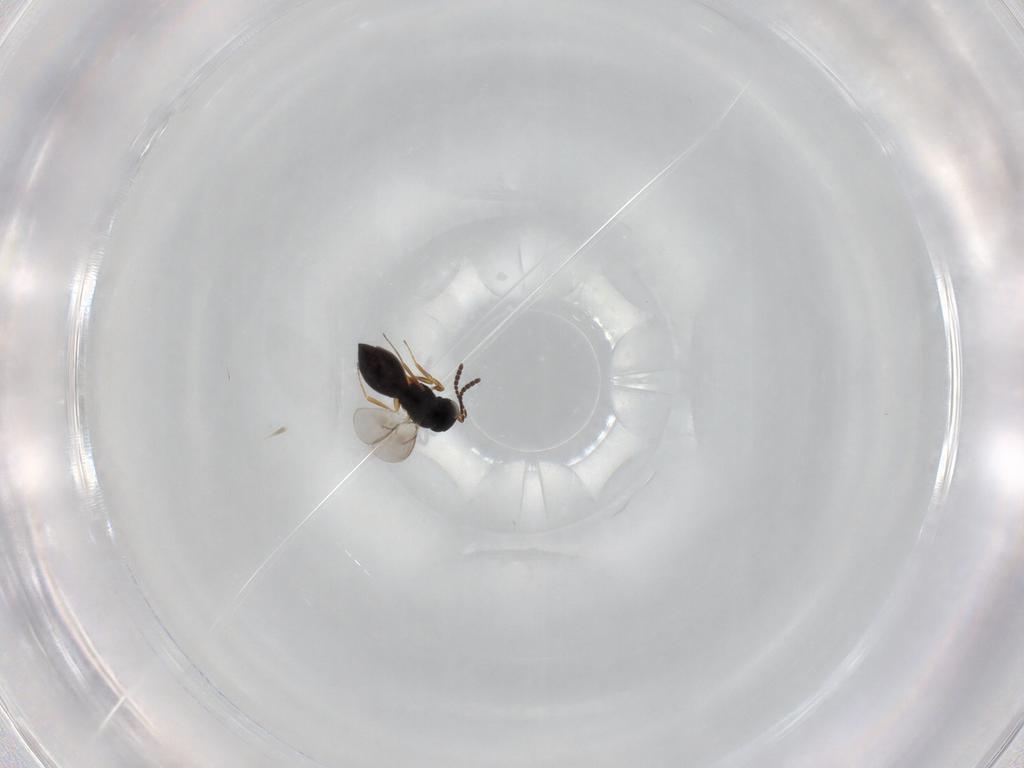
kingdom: Animalia
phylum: Arthropoda
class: Insecta
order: Hymenoptera
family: Scelionidae
